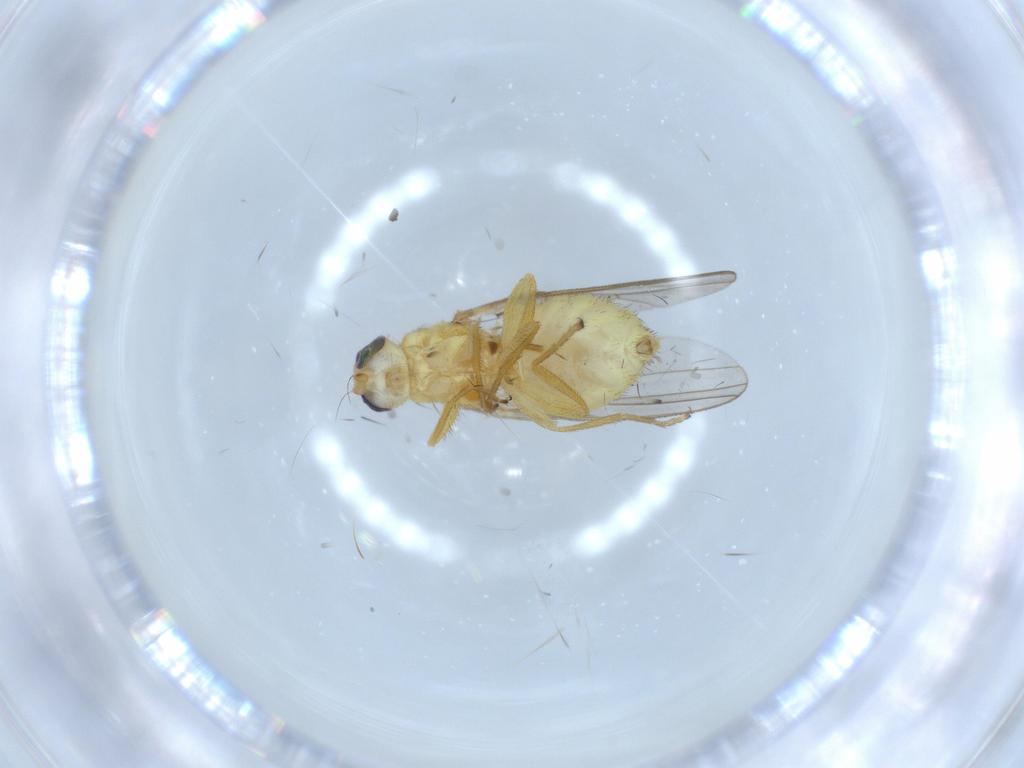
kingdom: Animalia
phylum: Arthropoda
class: Insecta
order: Diptera
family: Chyromyidae
